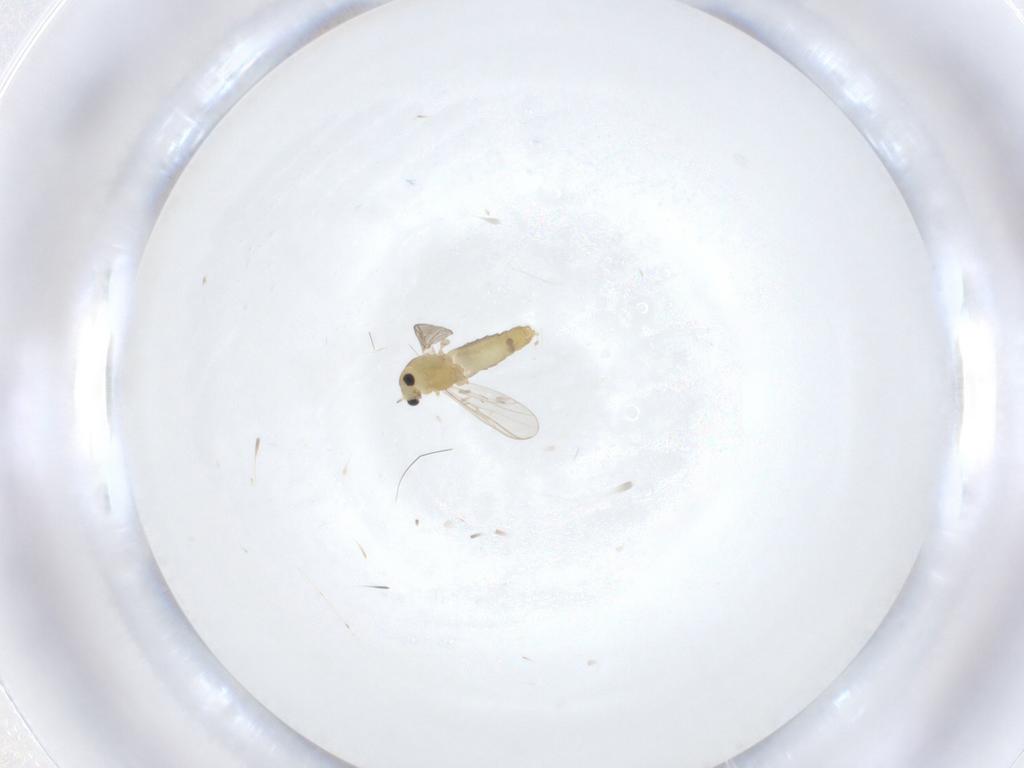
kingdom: Animalia
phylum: Arthropoda
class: Insecta
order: Diptera
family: Chironomidae
